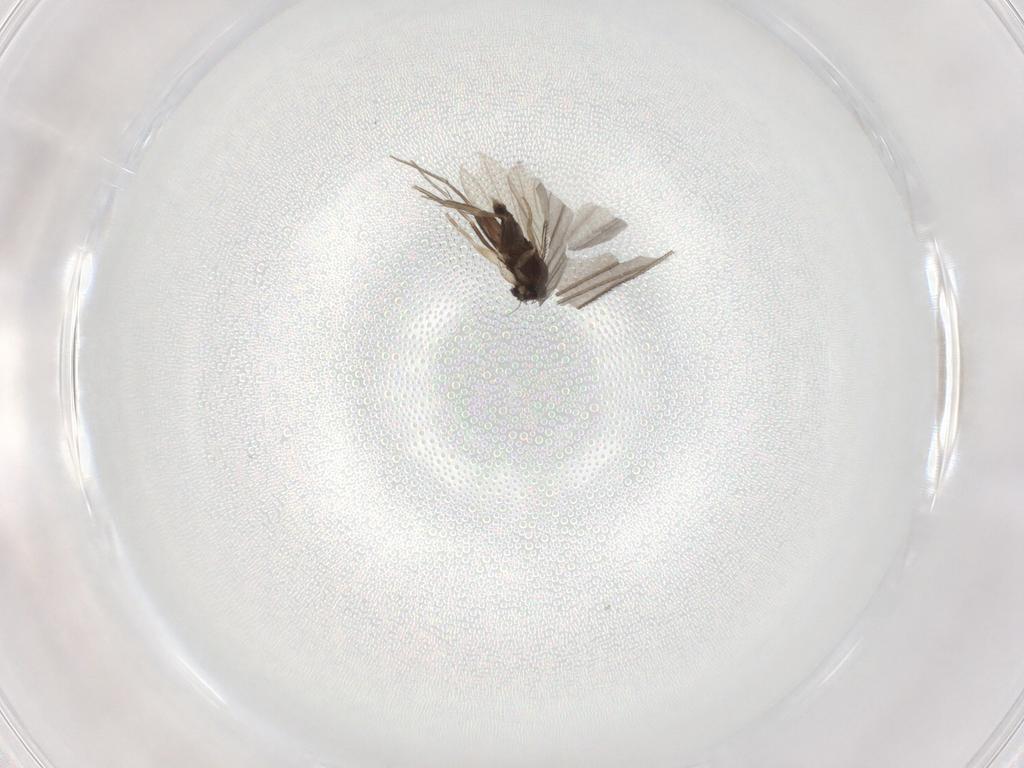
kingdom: Animalia
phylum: Arthropoda
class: Insecta
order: Diptera
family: Phoridae
